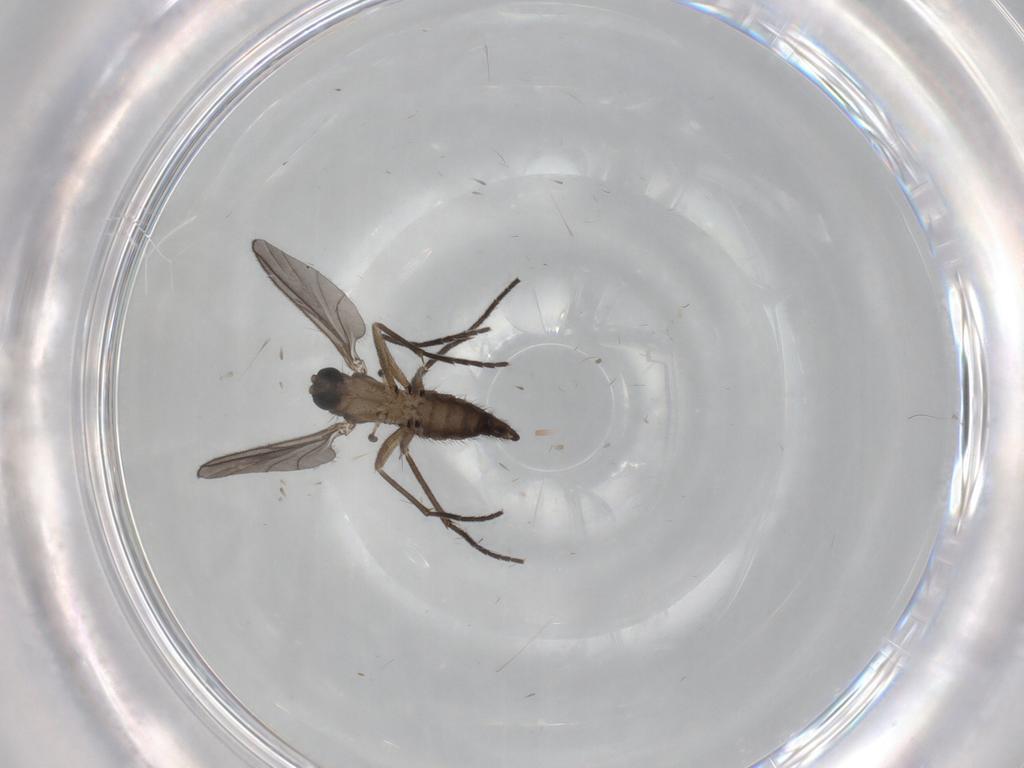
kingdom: Animalia
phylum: Arthropoda
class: Insecta
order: Diptera
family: Sciaridae
